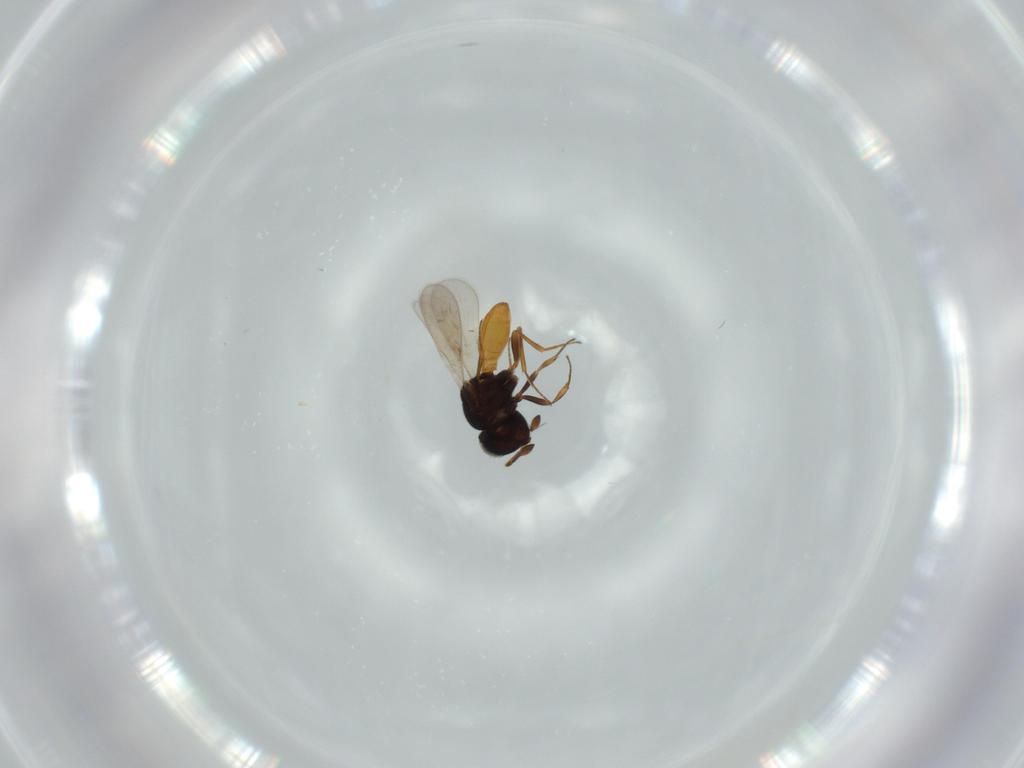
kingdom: Animalia
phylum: Arthropoda
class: Insecta
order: Hymenoptera
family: Scelionidae
